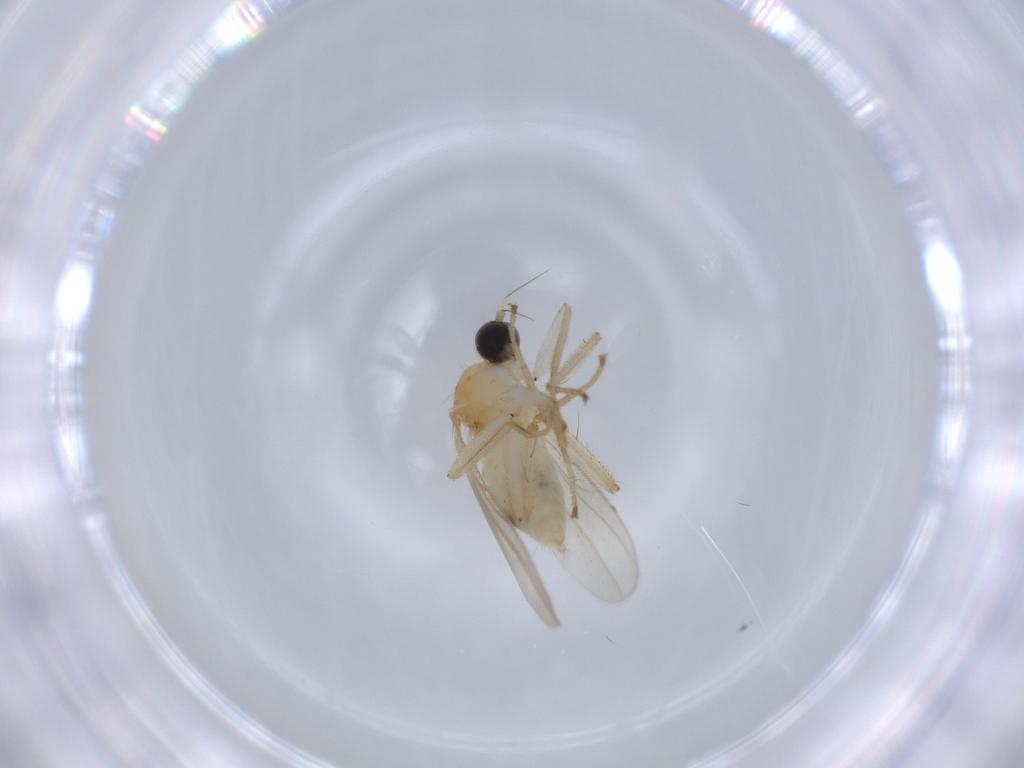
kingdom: Animalia
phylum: Arthropoda
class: Insecta
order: Diptera
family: Hybotidae
